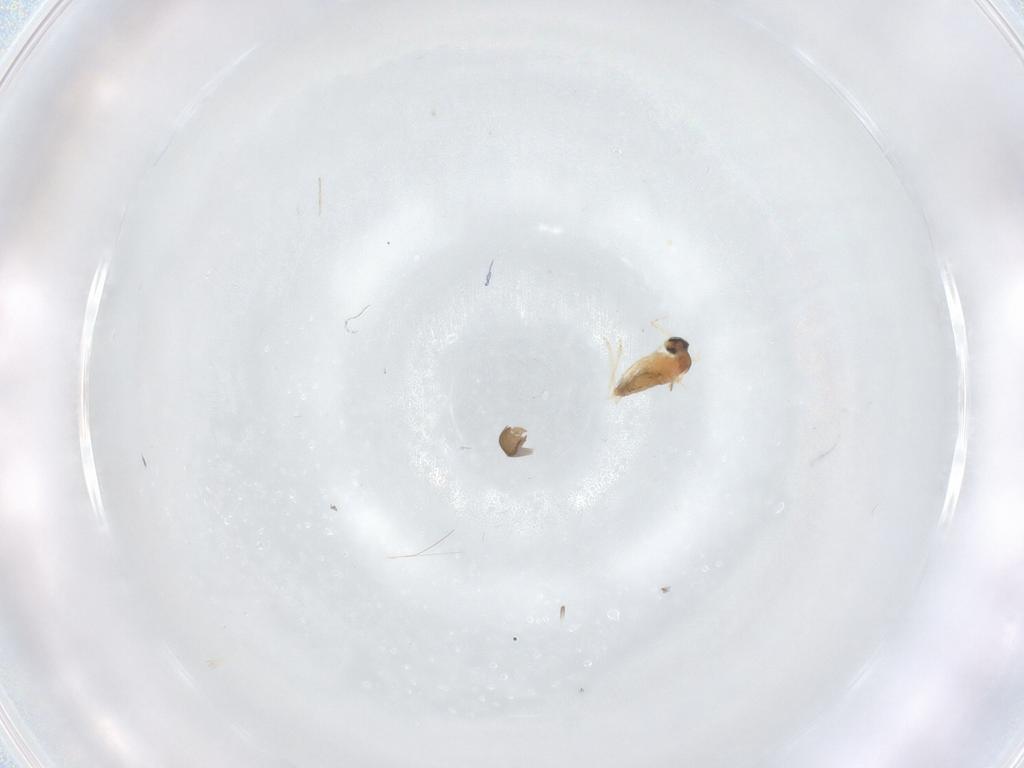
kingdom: Animalia
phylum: Arthropoda
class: Insecta
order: Diptera
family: Cecidomyiidae
